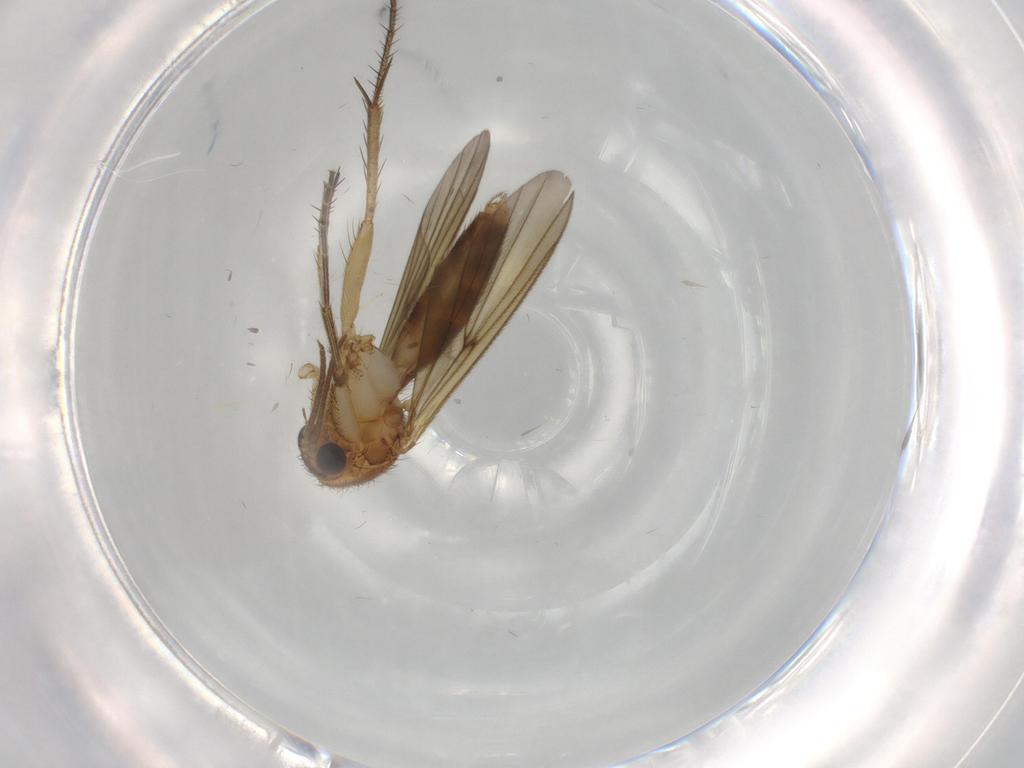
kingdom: Animalia
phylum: Arthropoda
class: Insecta
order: Diptera
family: Mycetophilidae
